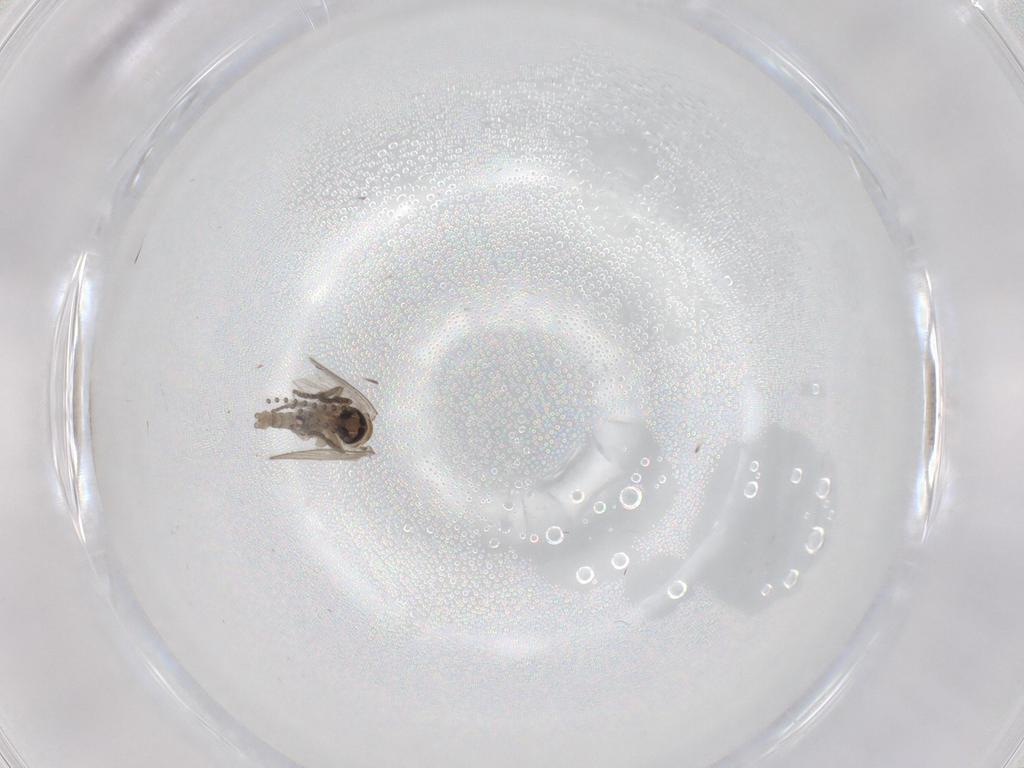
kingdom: Animalia
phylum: Arthropoda
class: Insecta
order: Diptera
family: Psychodidae
